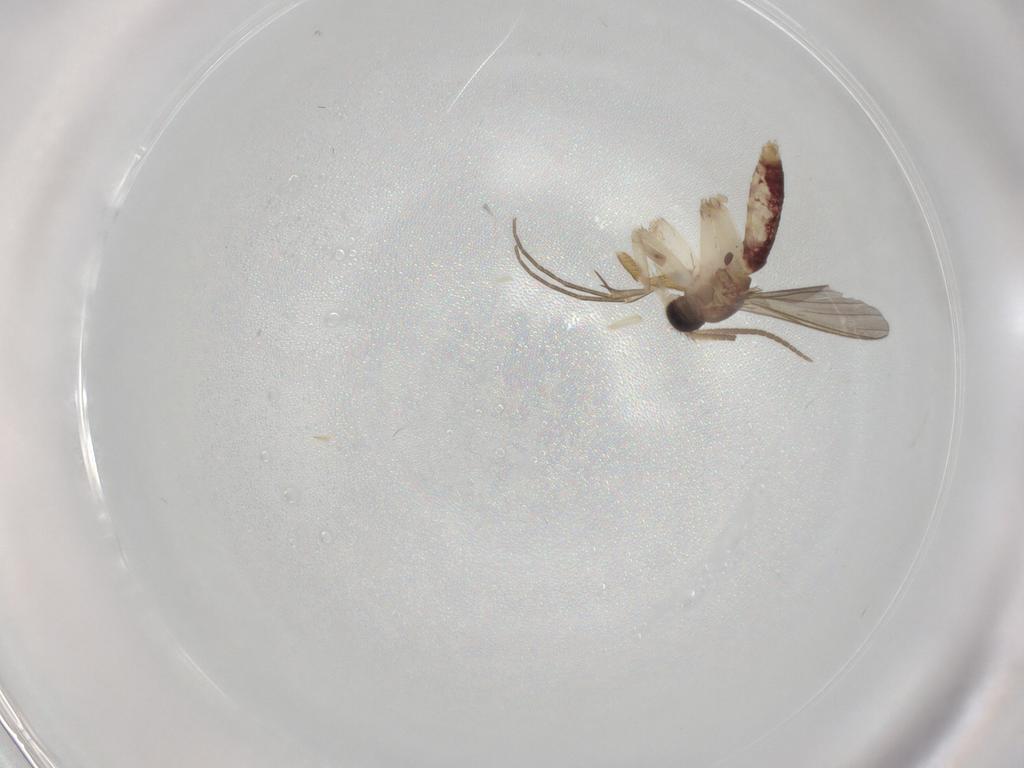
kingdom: Animalia
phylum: Arthropoda
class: Insecta
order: Diptera
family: Mycetophilidae
